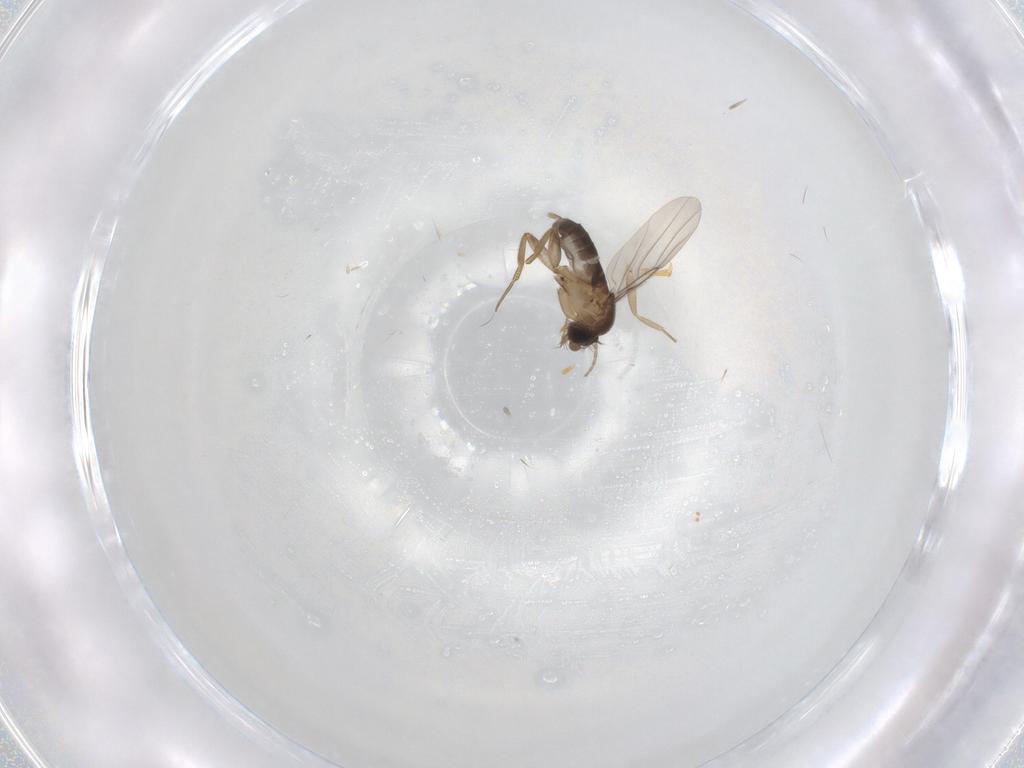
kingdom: Animalia
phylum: Arthropoda
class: Insecta
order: Diptera
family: Phoridae
